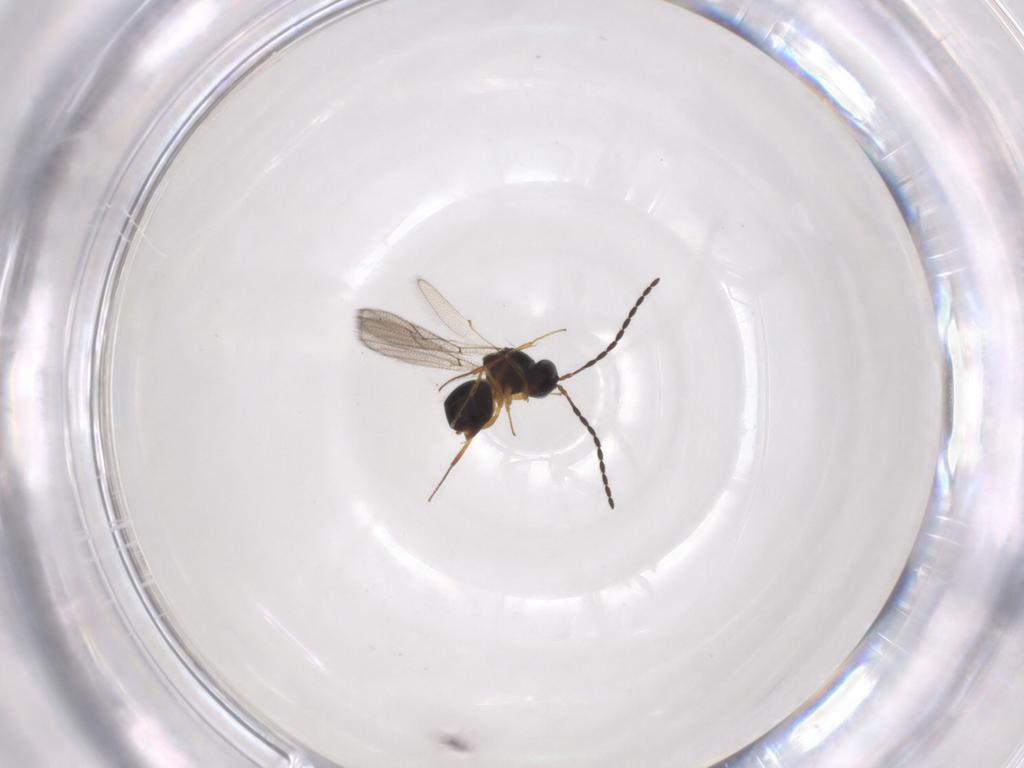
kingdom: Animalia
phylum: Arthropoda
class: Insecta
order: Hymenoptera
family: Figitidae
